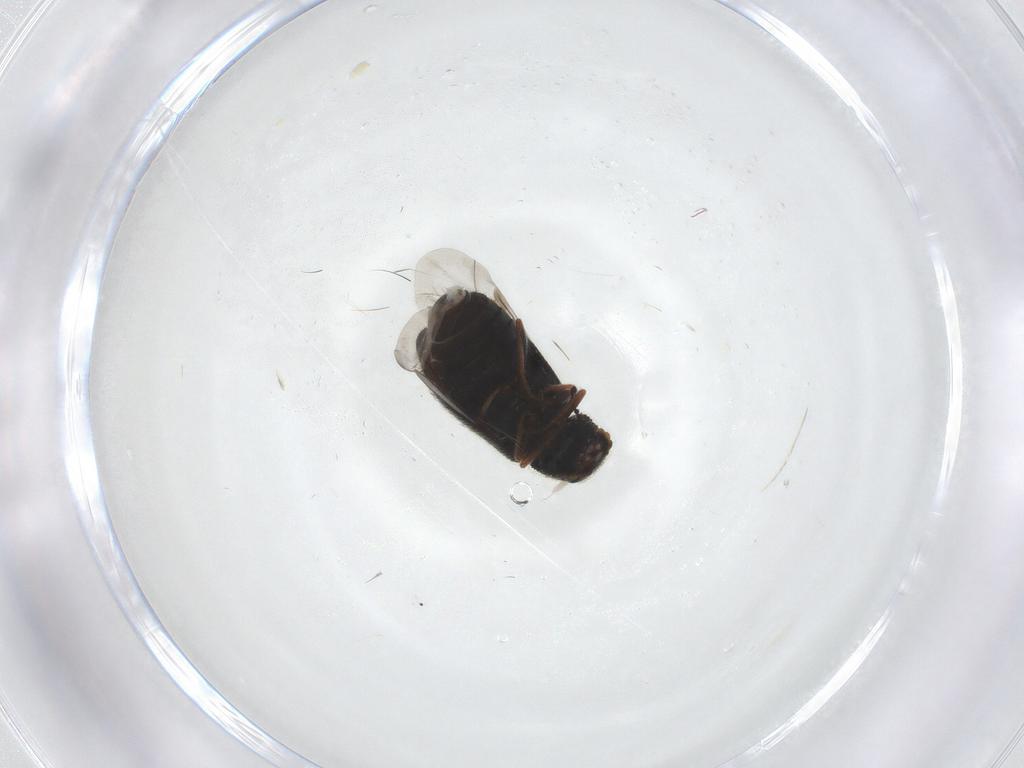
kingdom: Animalia
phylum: Arthropoda
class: Insecta
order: Coleoptera
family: Melyridae
